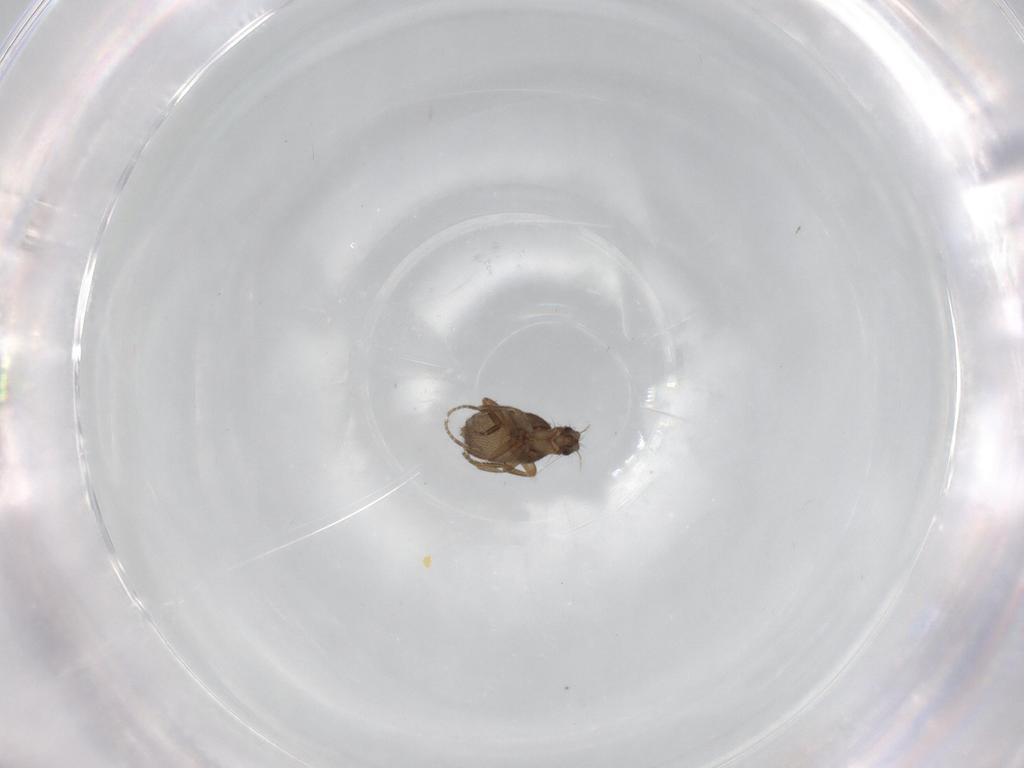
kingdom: Animalia
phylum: Arthropoda
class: Insecta
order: Diptera
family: Phoridae
